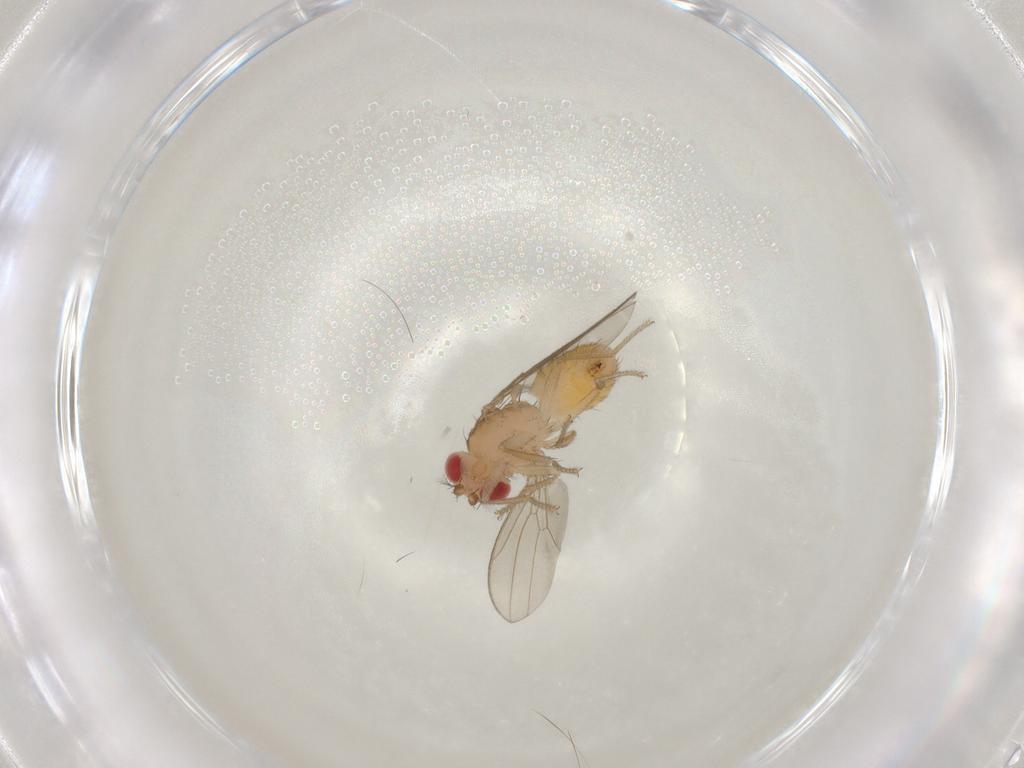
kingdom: Animalia
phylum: Arthropoda
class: Insecta
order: Diptera
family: Drosophilidae
